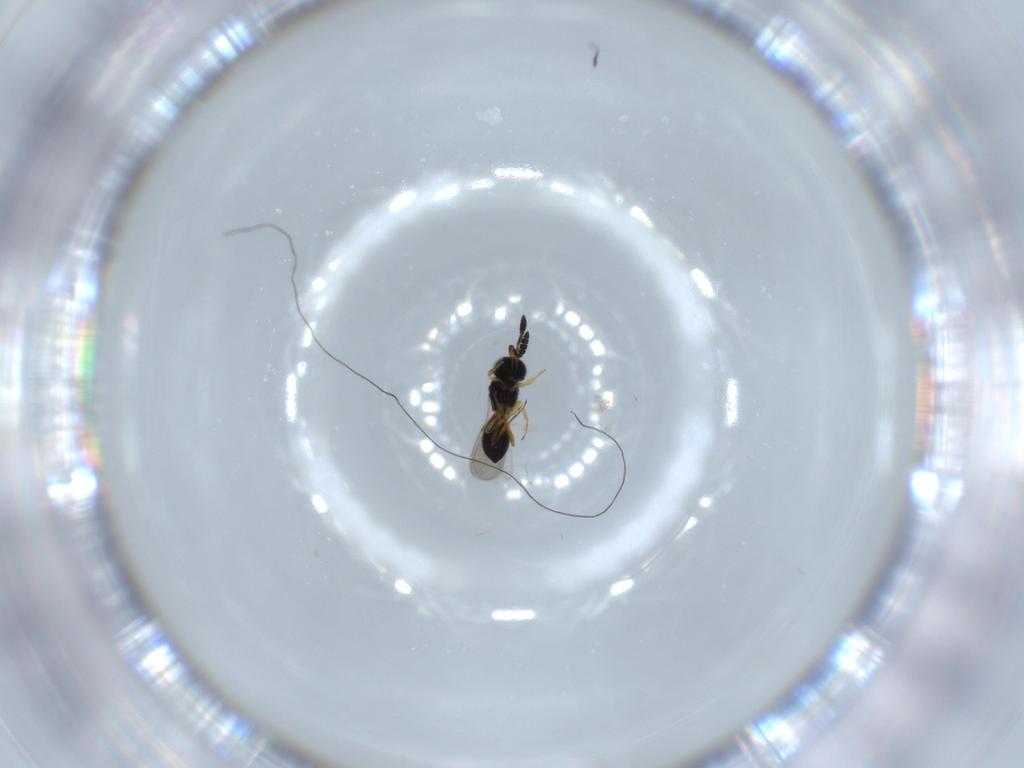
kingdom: Animalia
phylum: Arthropoda
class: Insecta
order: Hymenoptera
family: Scelionidae
